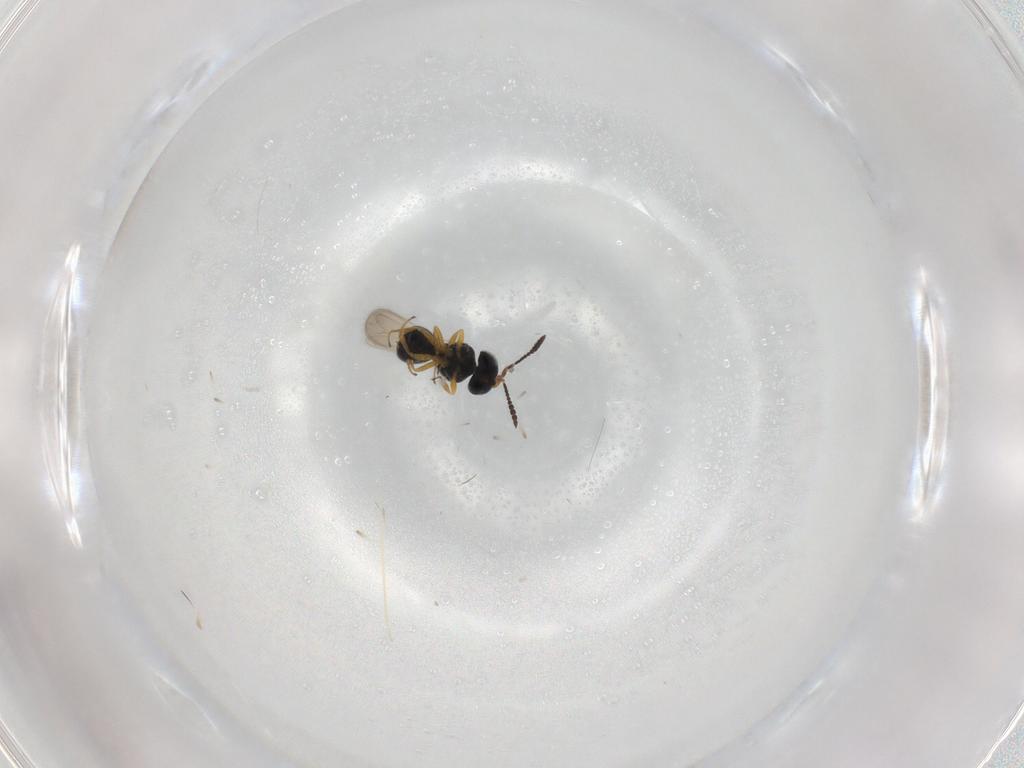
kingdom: Animalia
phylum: Arthropoda
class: Insecta
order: Hymenoptera
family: Scelionidae
